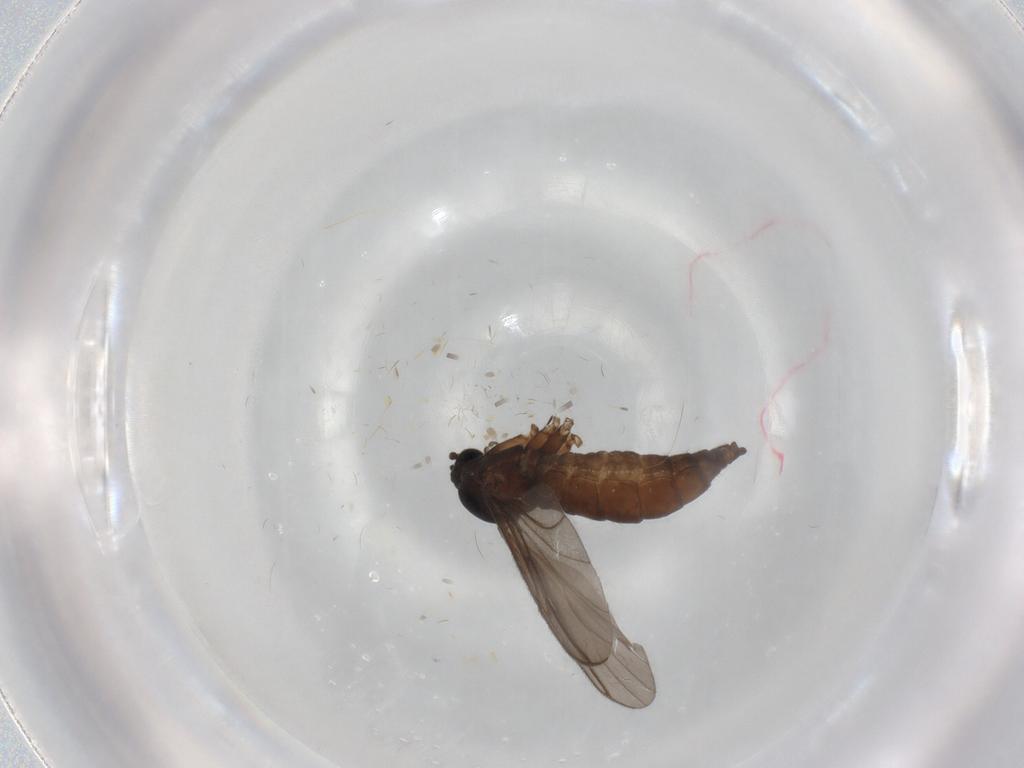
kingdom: Animalia
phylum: Arthropoda
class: Insecta
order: Diptera
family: Sciaridae
